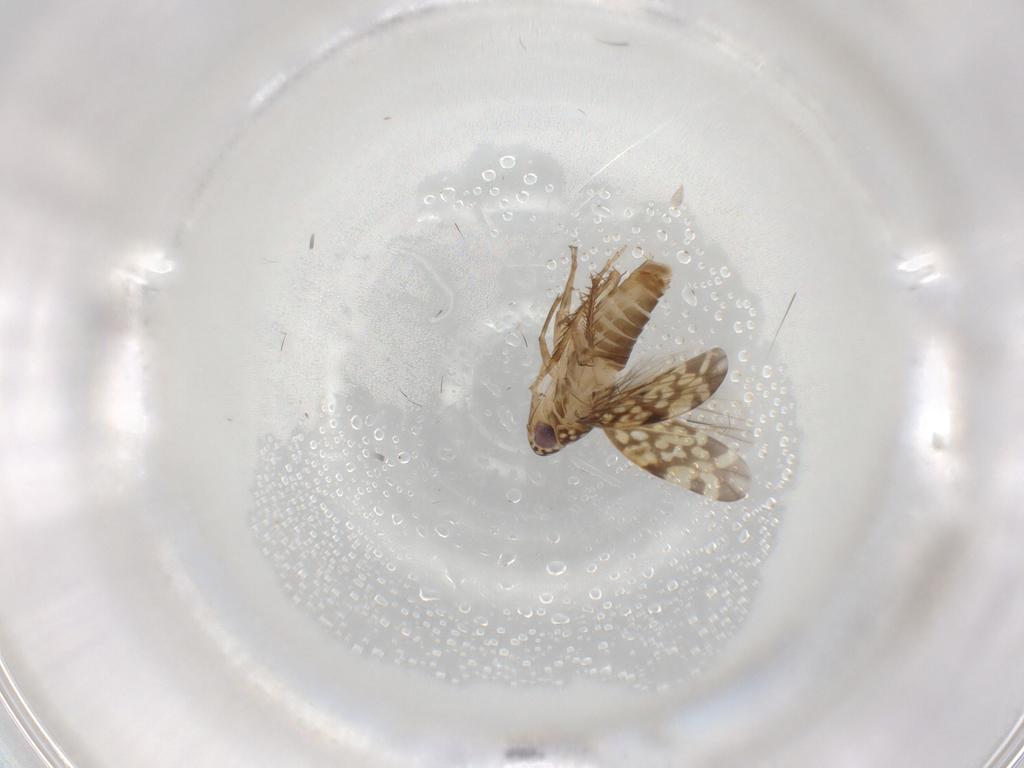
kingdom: Animalia
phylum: Arthropoda
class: Insecta
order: Hemiptera
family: Cicadellidae
